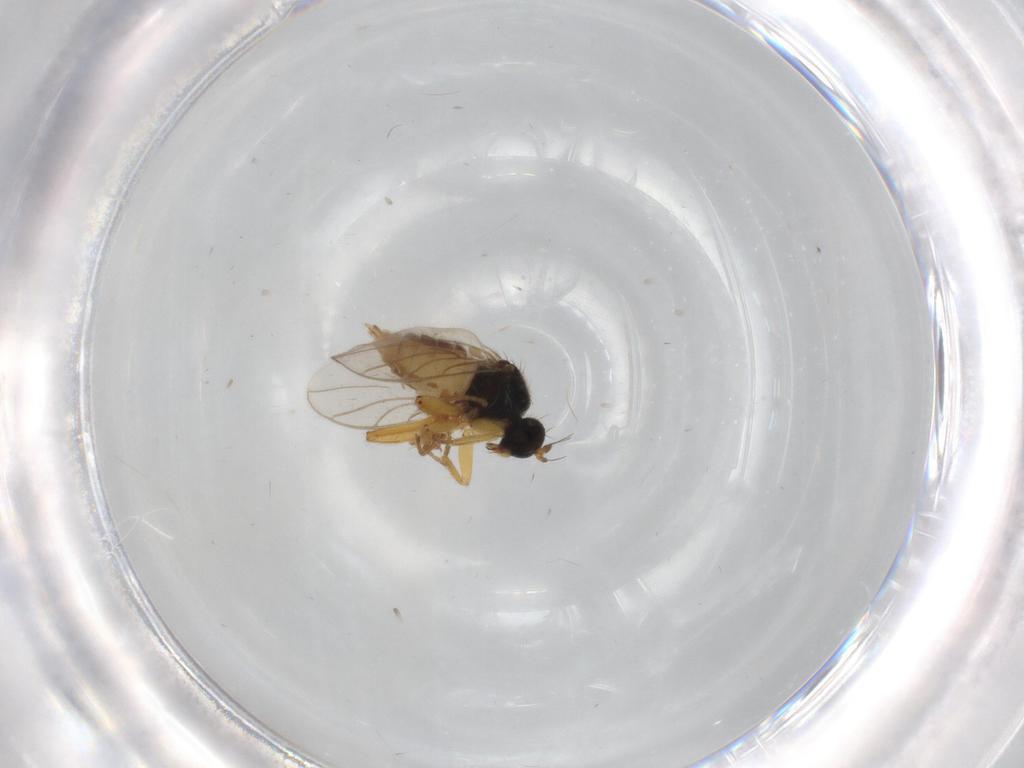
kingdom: Animalia
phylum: Arthropoda
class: Insecta
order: Diptera
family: Hybotidae
